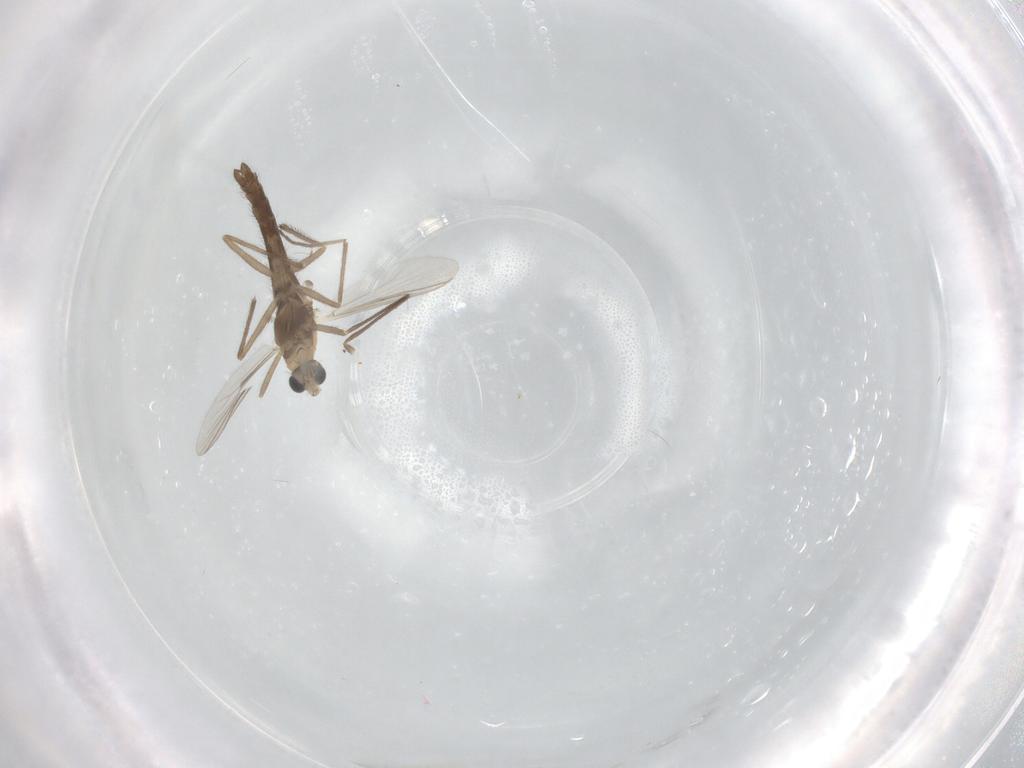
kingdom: Animalia
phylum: Arthropoda
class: Insecta
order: Diptera
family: Chironomidae
